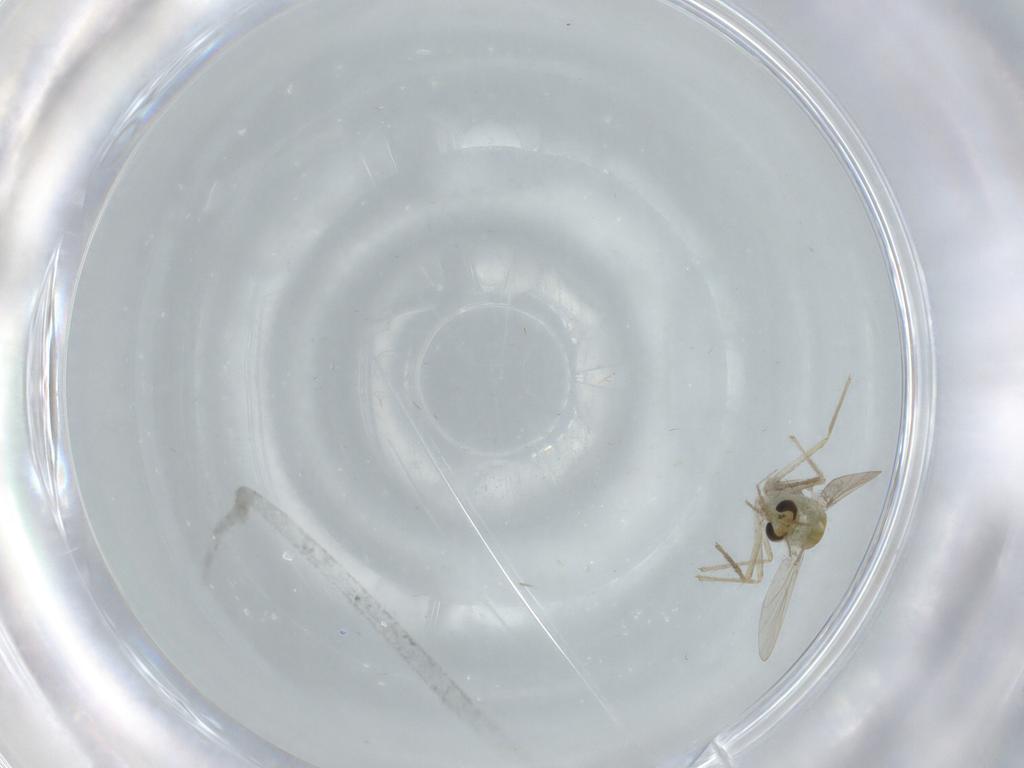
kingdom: Animalia
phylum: Arthropoda
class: Insecta
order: Diptera
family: Chironomidae
